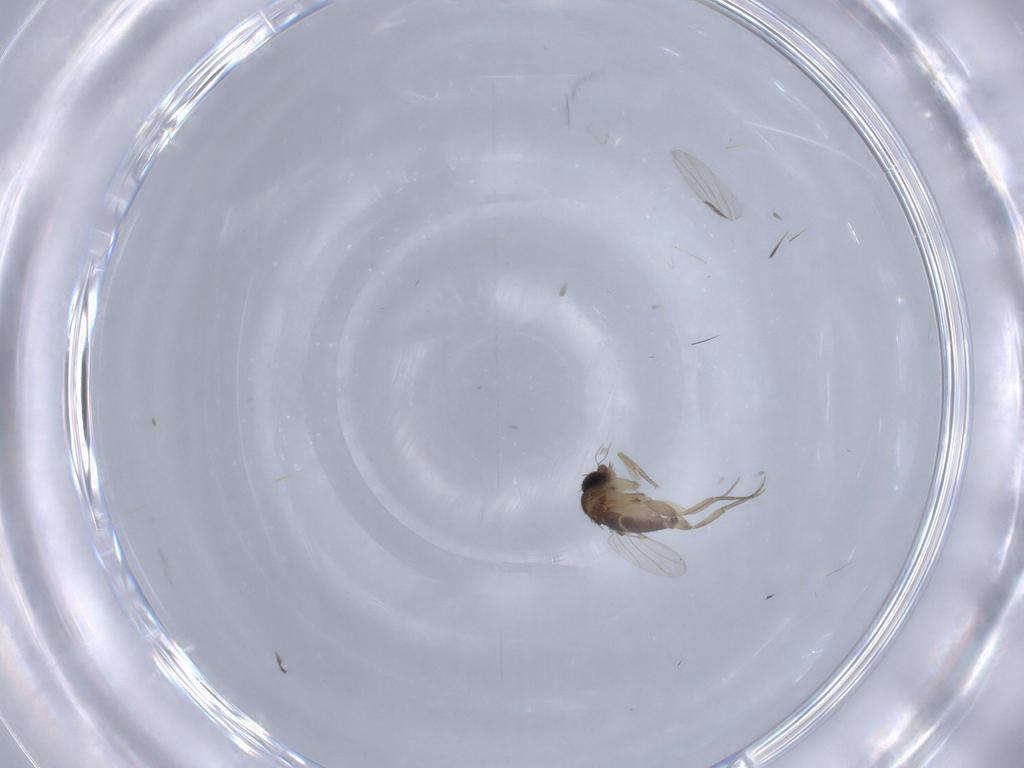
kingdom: Animalia
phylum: Arthropoda
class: Insecta
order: Diptera
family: Phoridae
